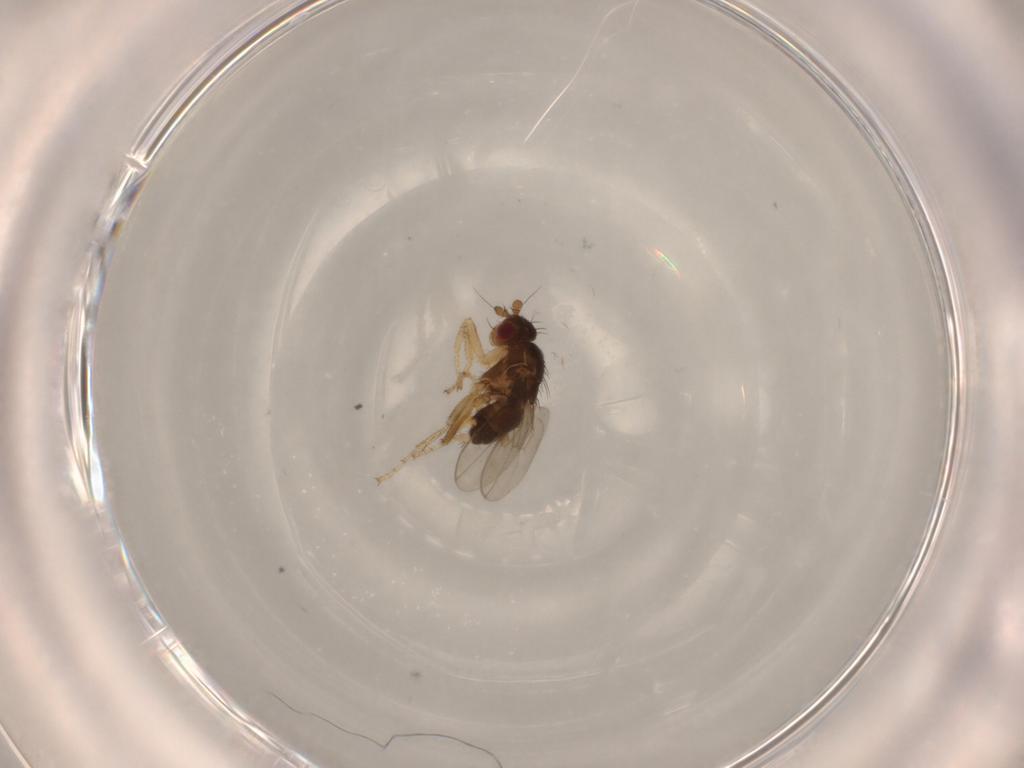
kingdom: Animalia
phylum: Arthropoda
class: Insecta
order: Diptera
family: Sphaeroceridae
